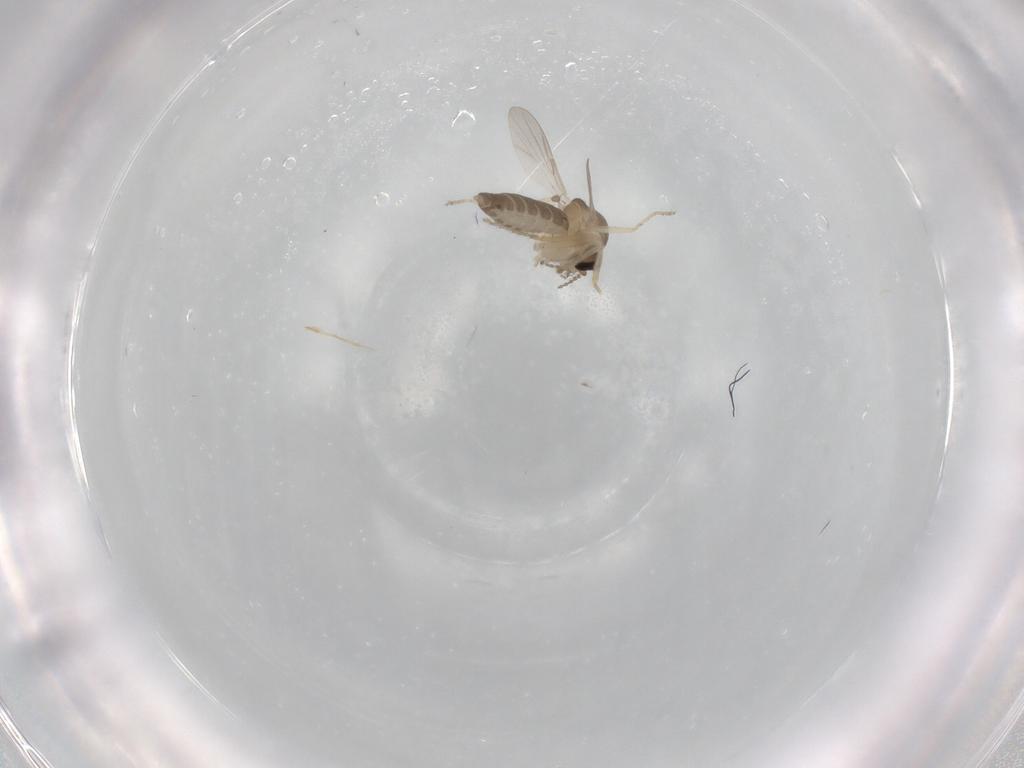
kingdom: Animalia
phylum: Arthropoda
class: Insecta
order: Diptera
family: Ceratopogonidae
